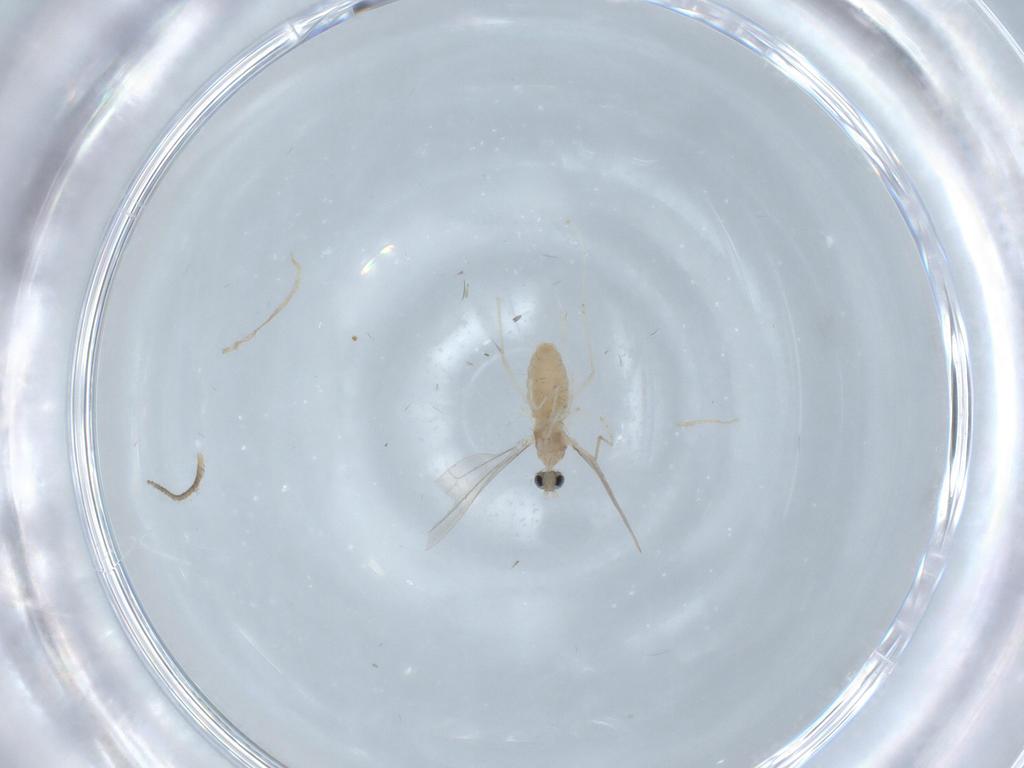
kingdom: Animalia
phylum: Arthropoda
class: Insecta
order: Diptera
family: Cecidomyiidae
